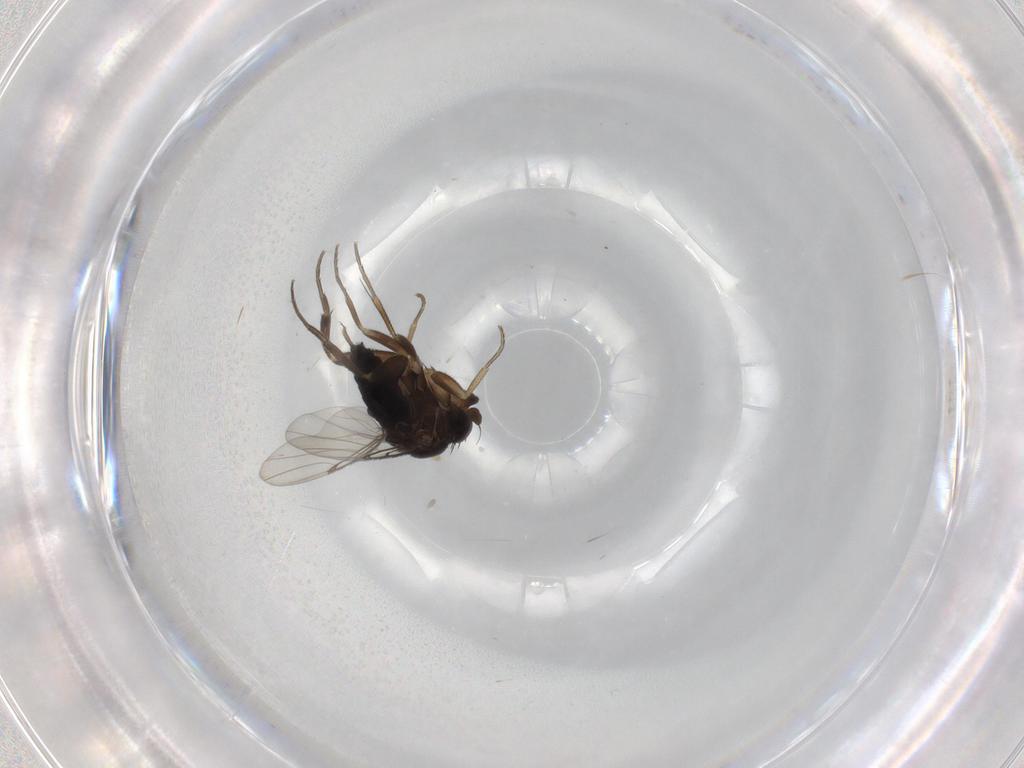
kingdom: Animalia
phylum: Arthropoda
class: Insecta
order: Diptera
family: Phoridae
